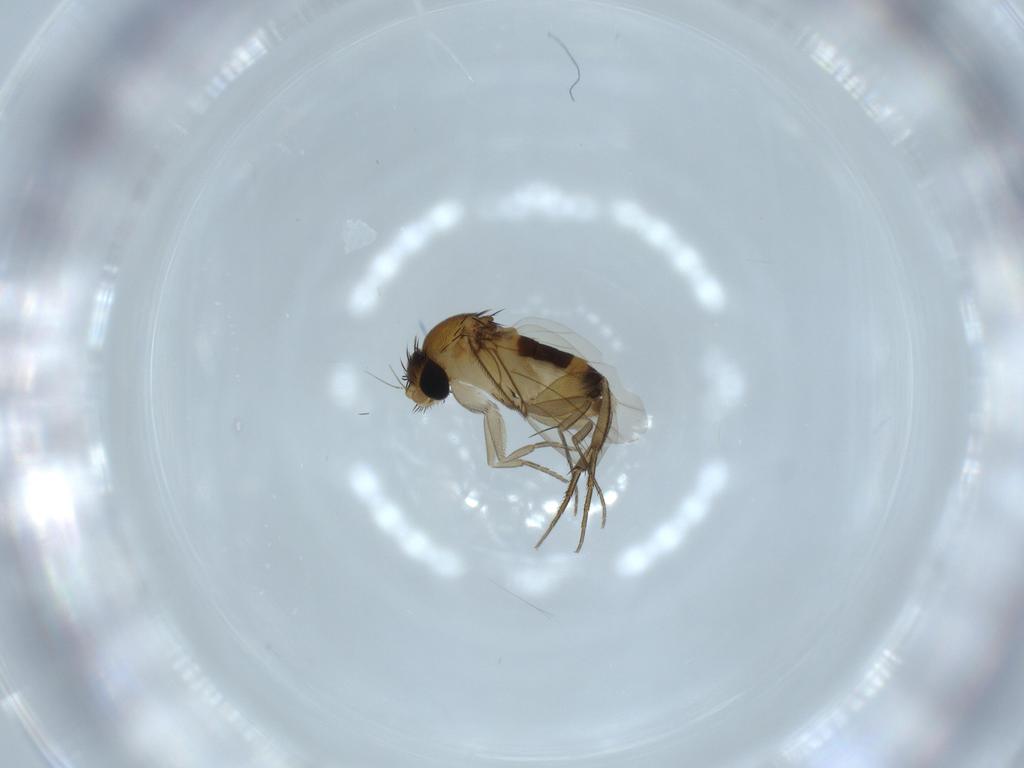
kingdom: Animalia
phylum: Arthropoda
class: Insecta
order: Diptera
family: Phoridae
